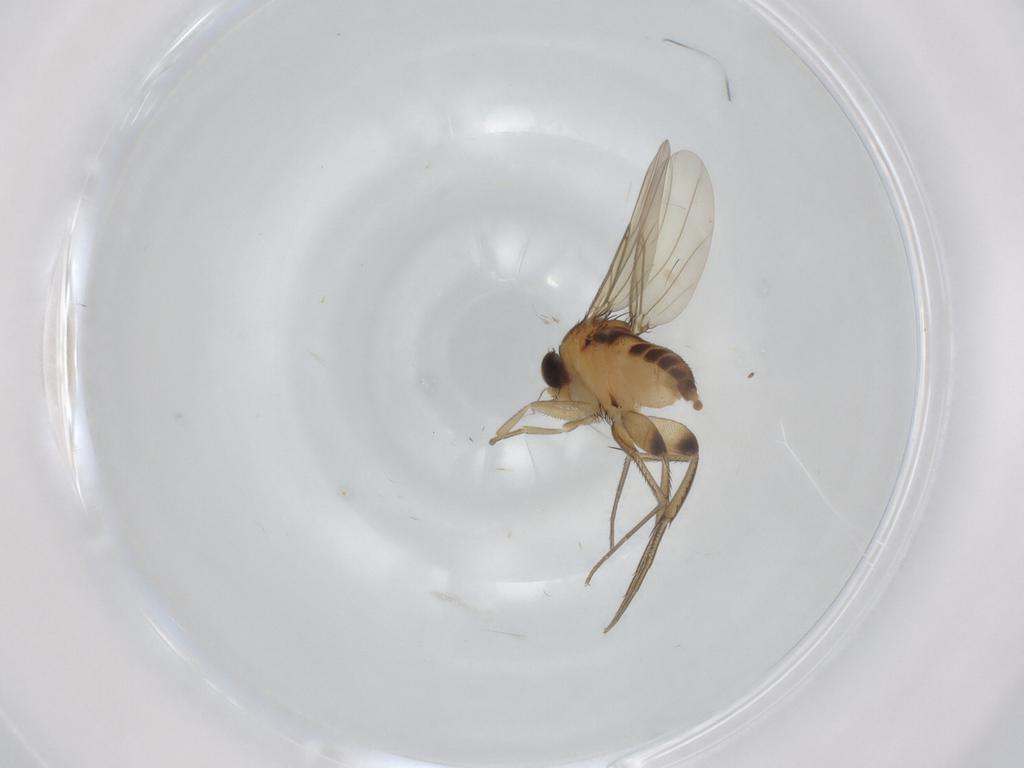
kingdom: Animalia
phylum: Arthropoda
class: Insecta
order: Diptera
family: Phoridae
